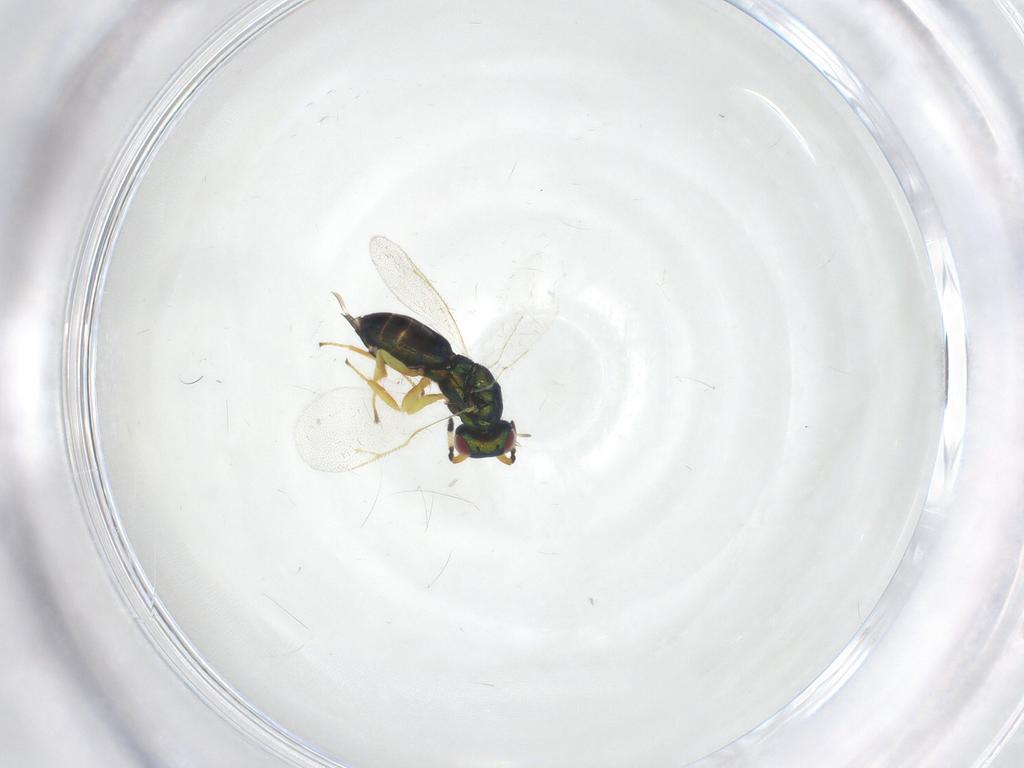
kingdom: Animalia
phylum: Arthropoda
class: Insecta
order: Hymenoptera
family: Pteromalidae
